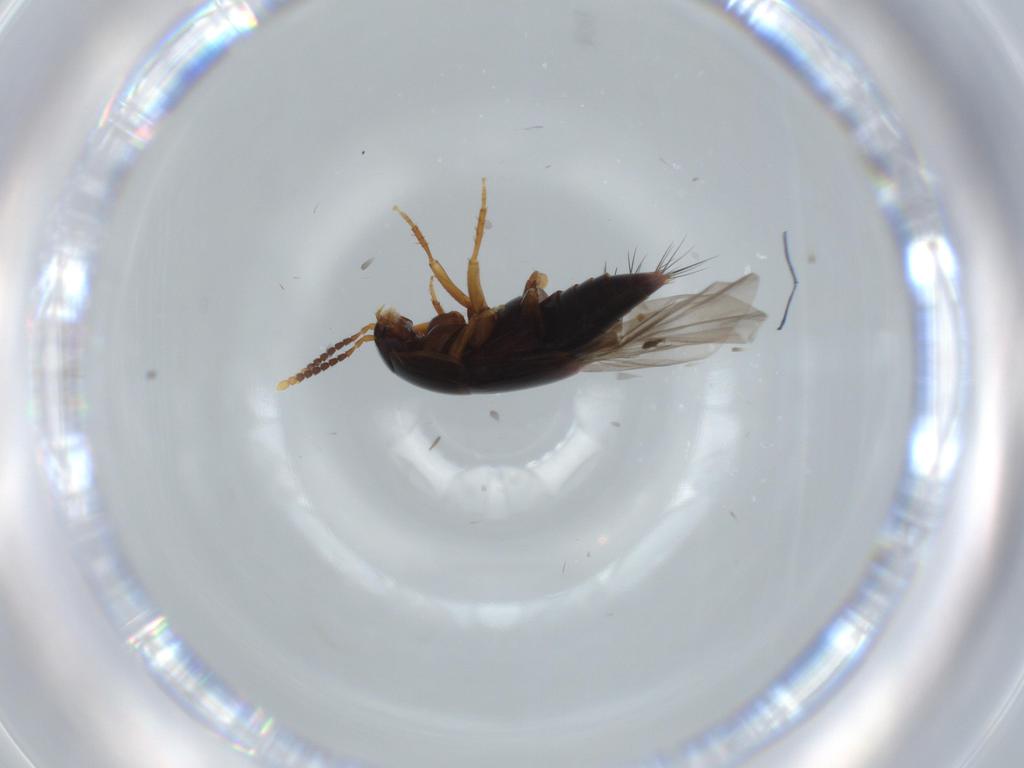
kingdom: Animalia
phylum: Arthropoda
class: Insecta
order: Coleoptera
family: Staphylinidae
